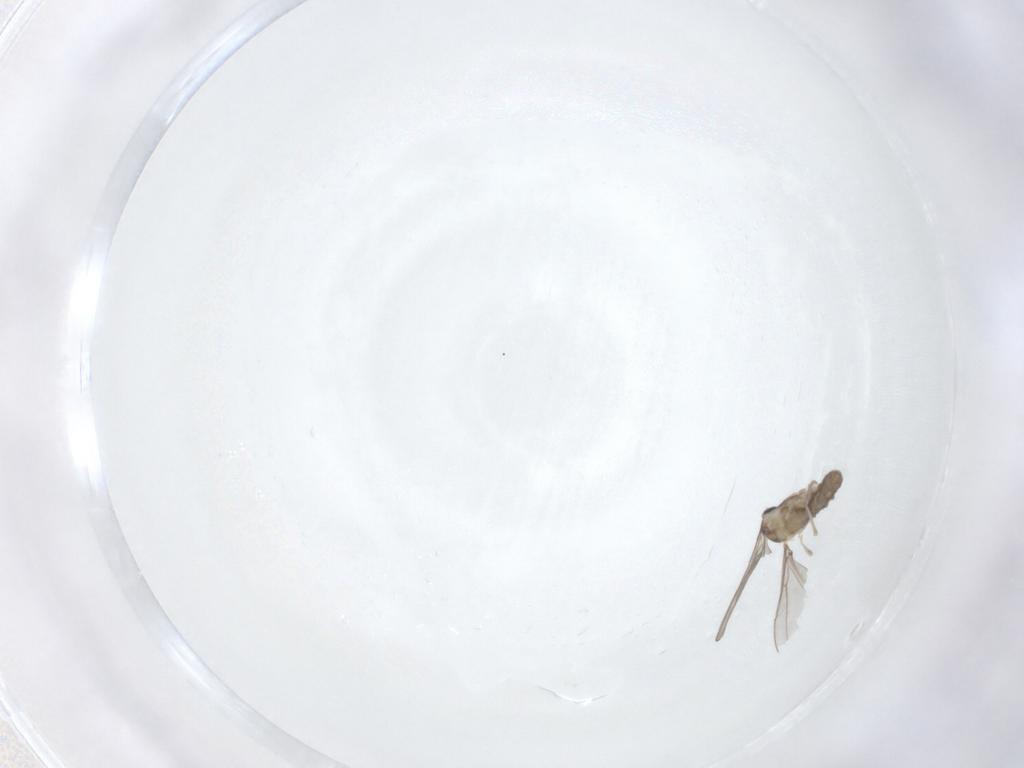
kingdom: Animalia
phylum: Arthropoda
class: Insecta
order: Diptera
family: Cecidomyiidae
